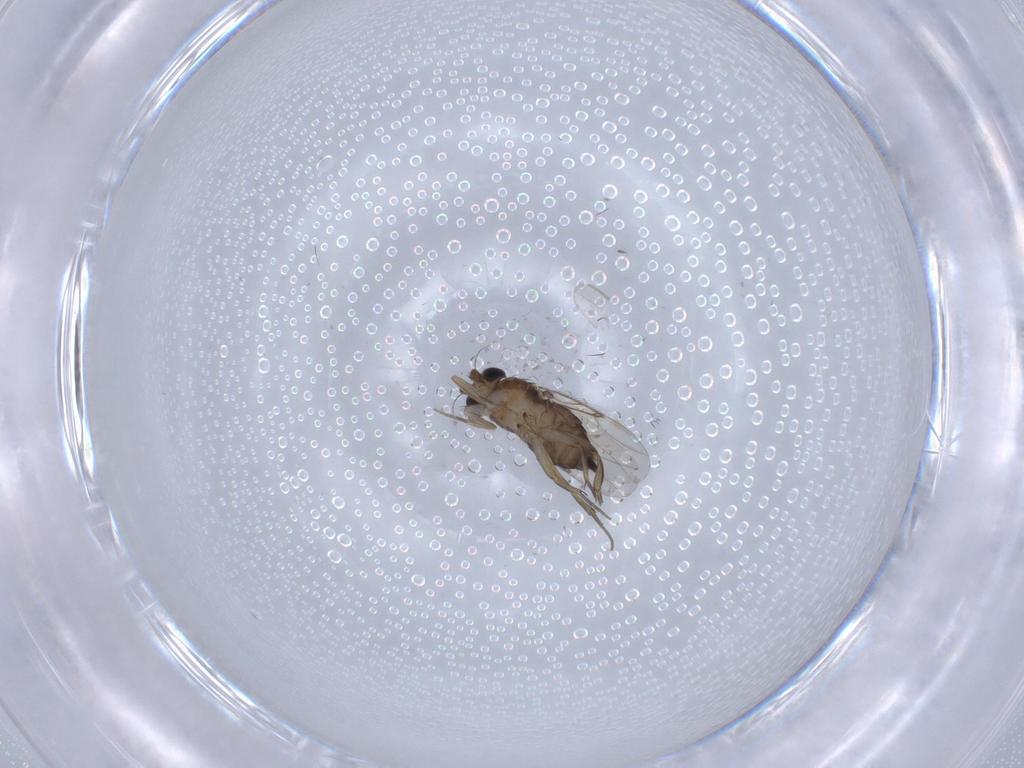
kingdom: Animalia
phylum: Arthropoda
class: Insecta
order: Diptera
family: Phoridae
